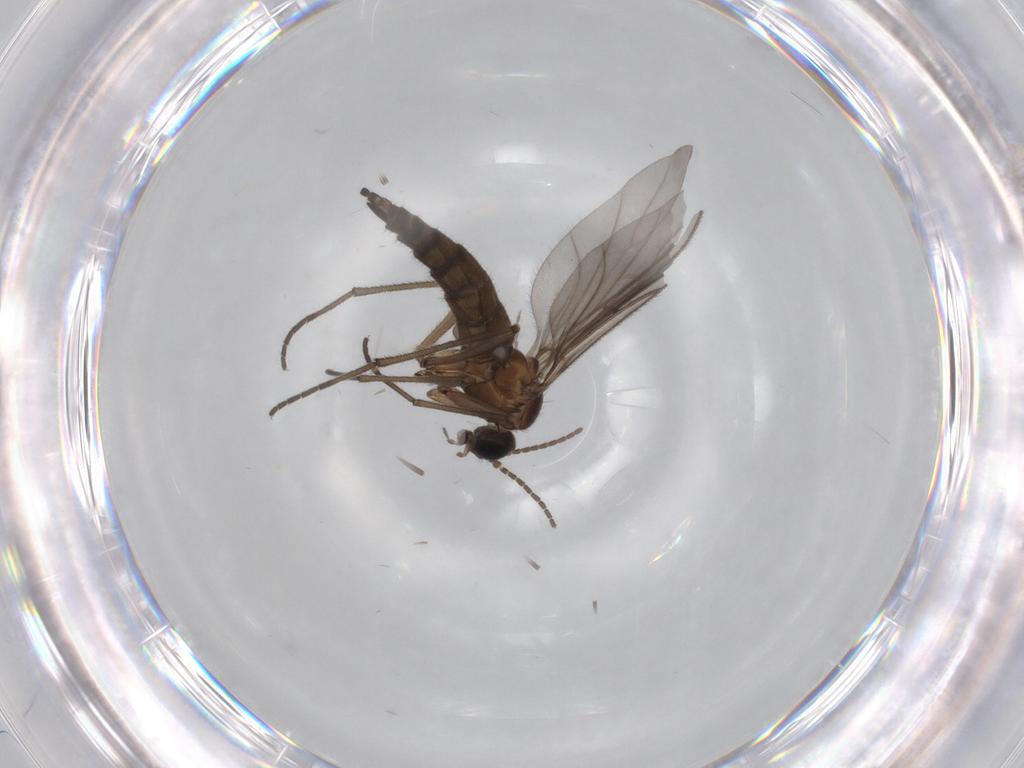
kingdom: Animalia
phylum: Arthropoda
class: Insecta
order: Diptera
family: Sciaridae
